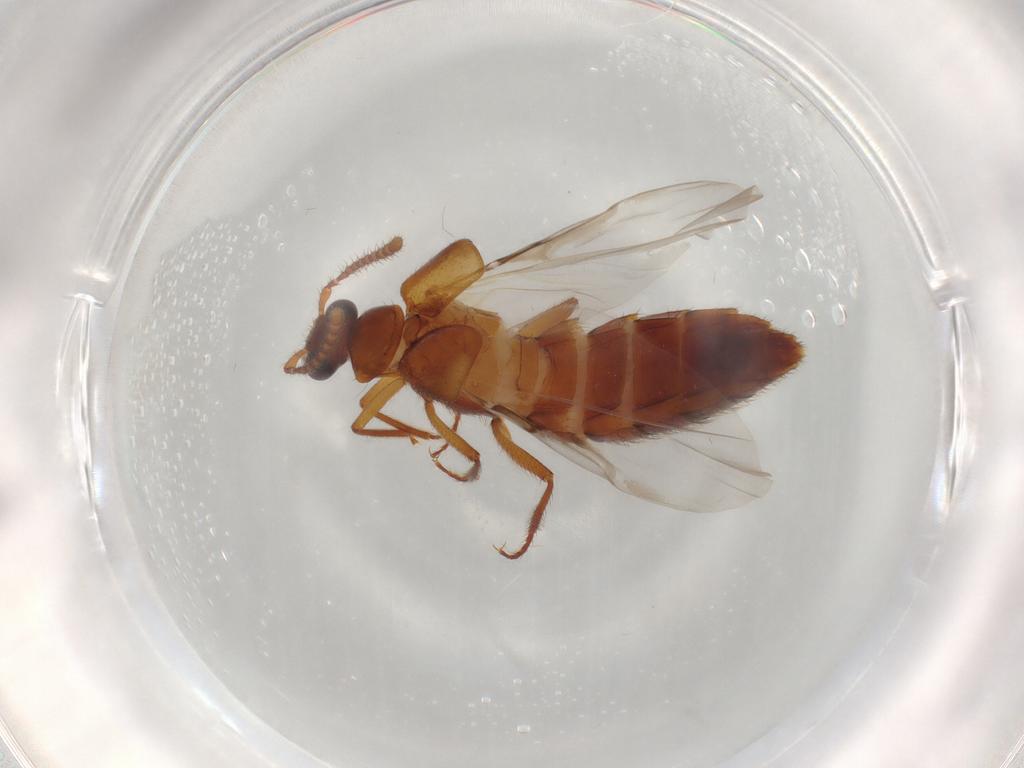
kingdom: Animalia
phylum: Arthropoda
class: Insecta
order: Coleoptera
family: Staphylinidae
